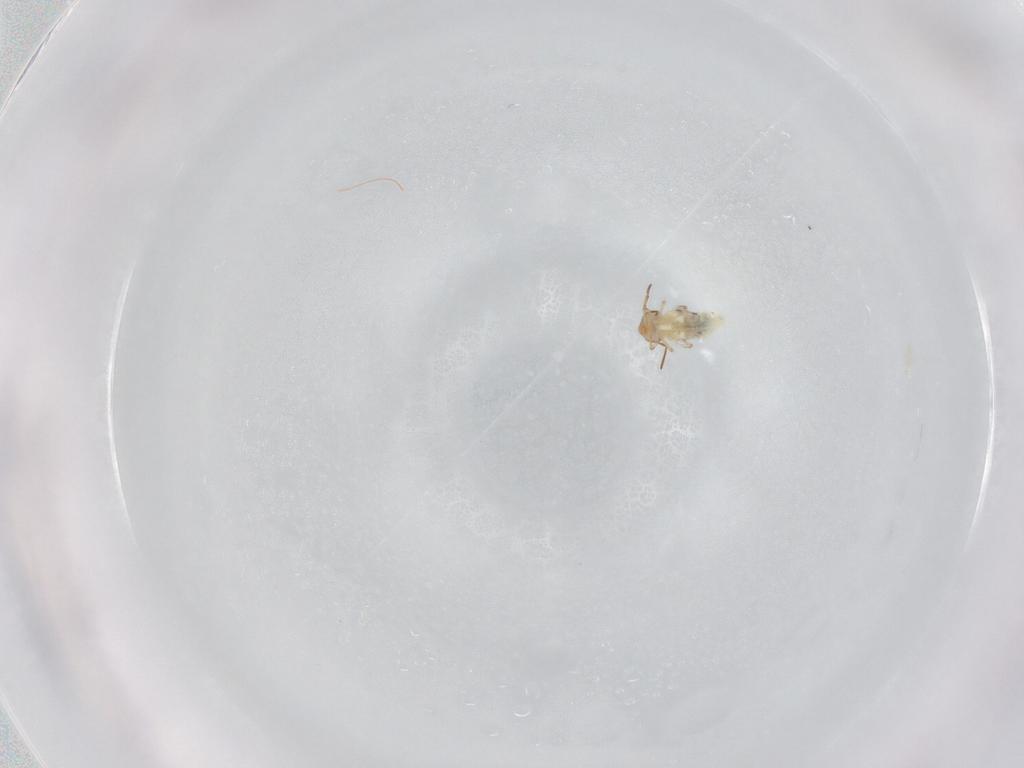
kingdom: Animalia
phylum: Arthropoda
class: Collembola
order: Symphypleona
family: Bourletiellidae
